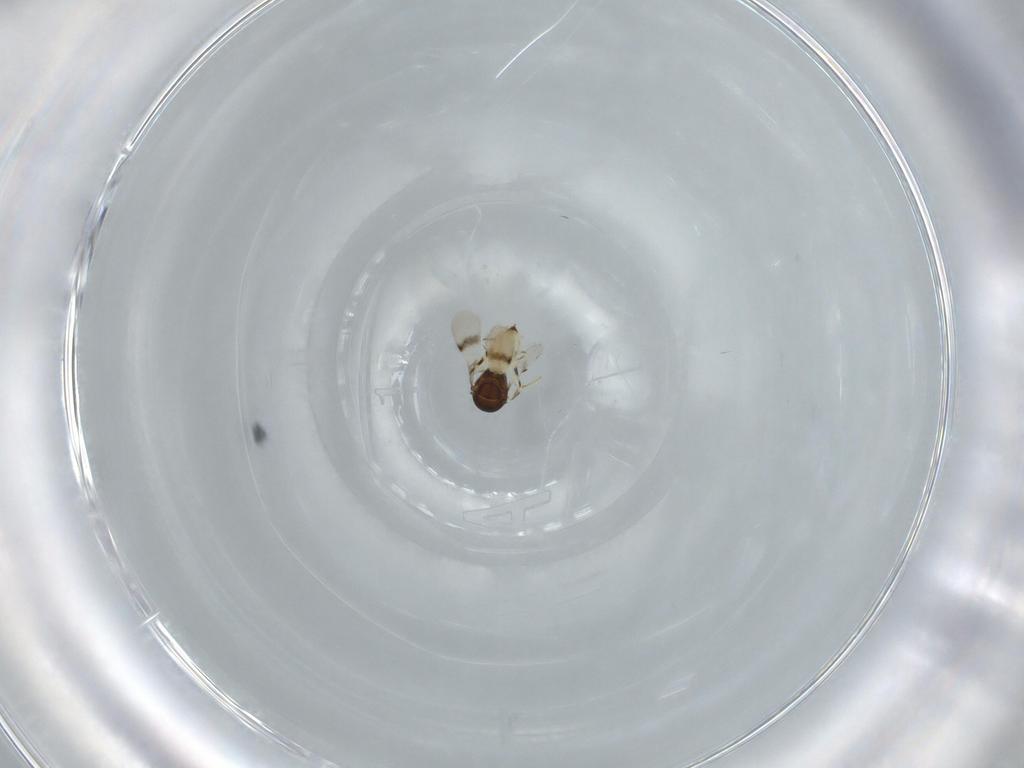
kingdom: Animalia
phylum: Arthropoda
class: Insecta
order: Hymenoptera
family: Scelionidae
